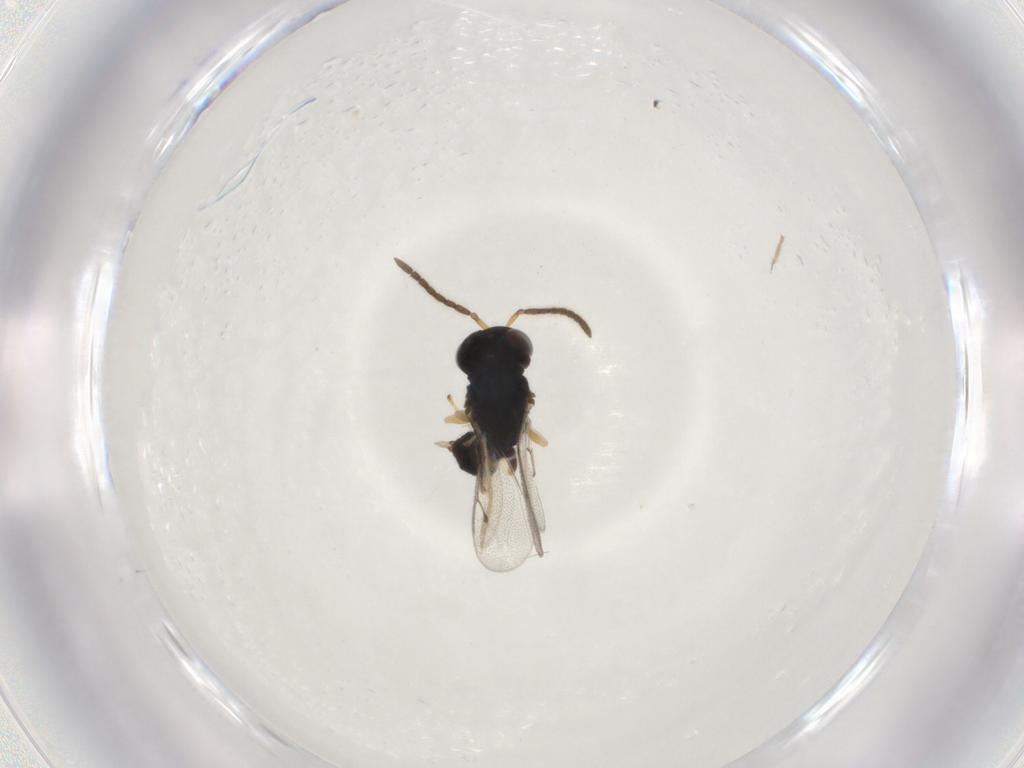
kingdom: Animalia
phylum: Arthropoda
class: Insecta
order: Hymenoptera
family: Pteromalidae
